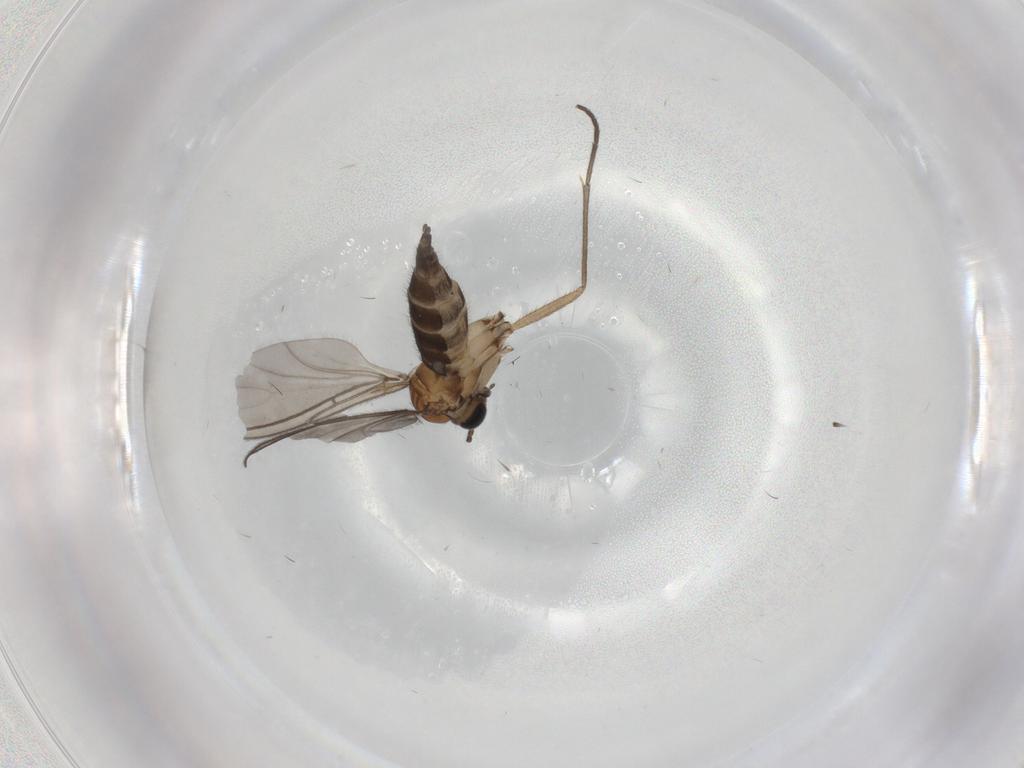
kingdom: Animalia
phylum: Arthropoda
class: Insecta
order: Diptera
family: Sciaridae
